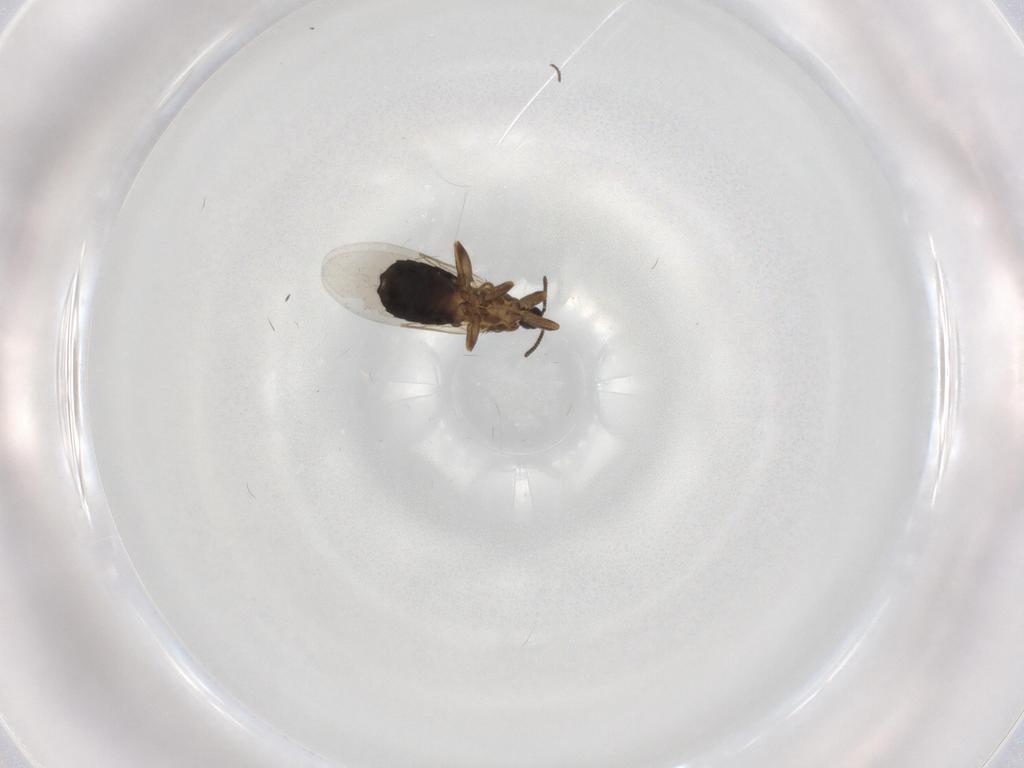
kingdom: Animalia
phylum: Arthropoda
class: Insecta
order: Diptera
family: Scatopsidae
